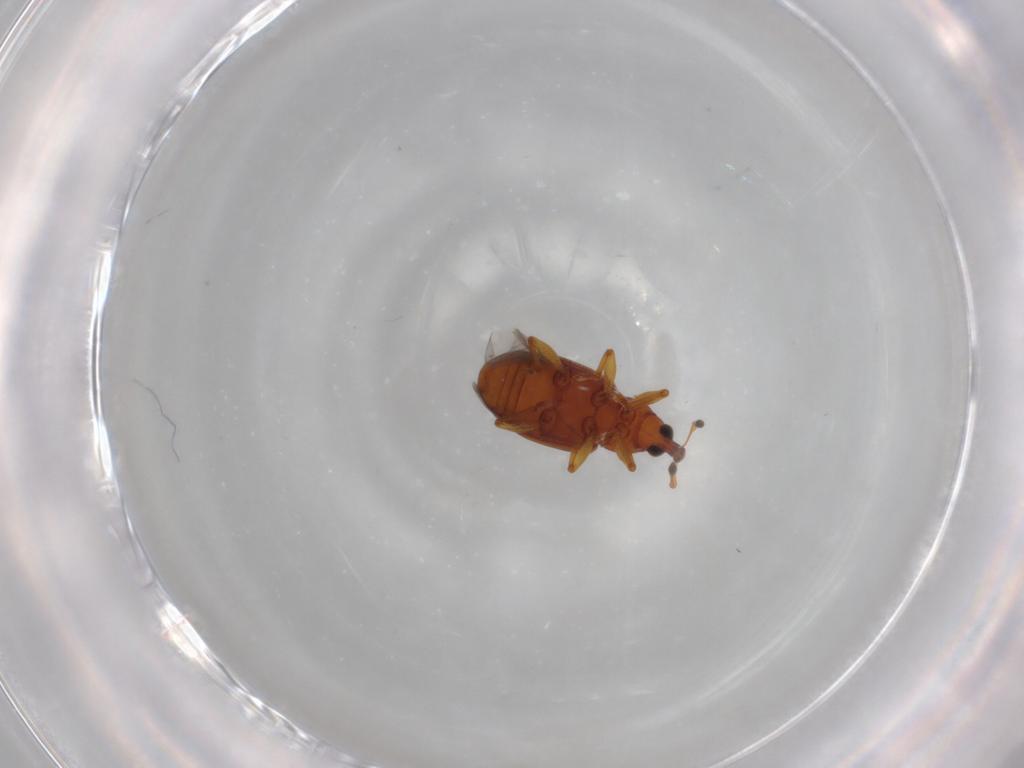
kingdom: Animalia
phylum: Arthropoda
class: Insecta
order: Coleoptera
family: Curculionidae
